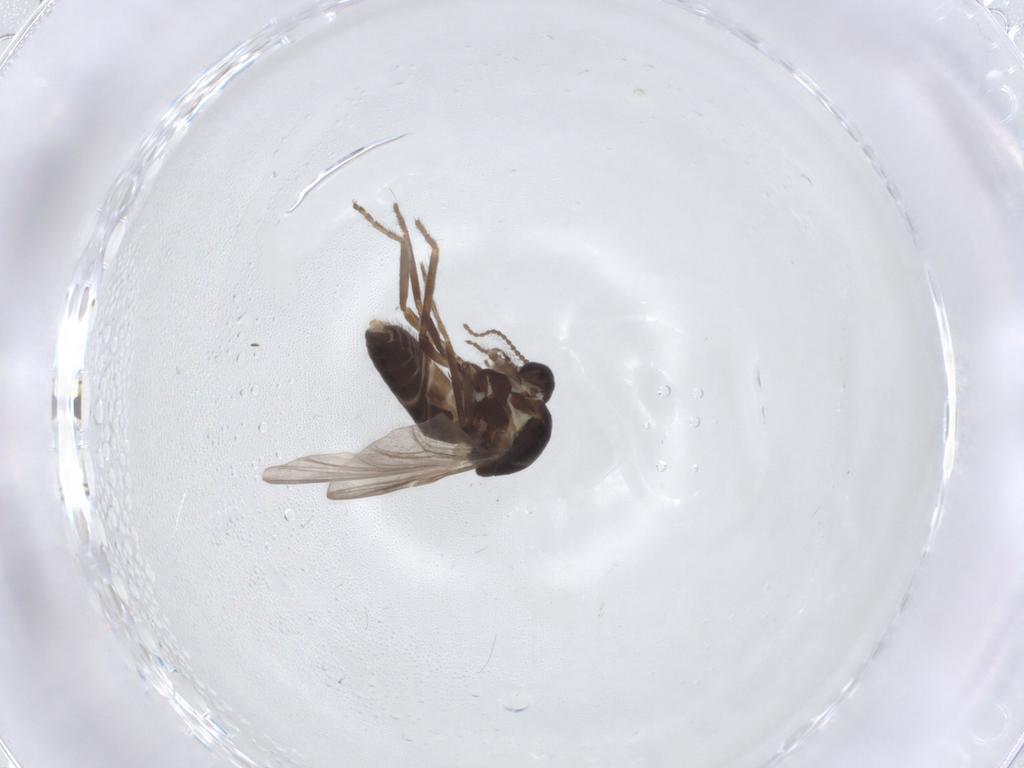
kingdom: Animalia
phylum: Arthropoda
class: Insecta
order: Diptera
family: Ceratopogonidae
